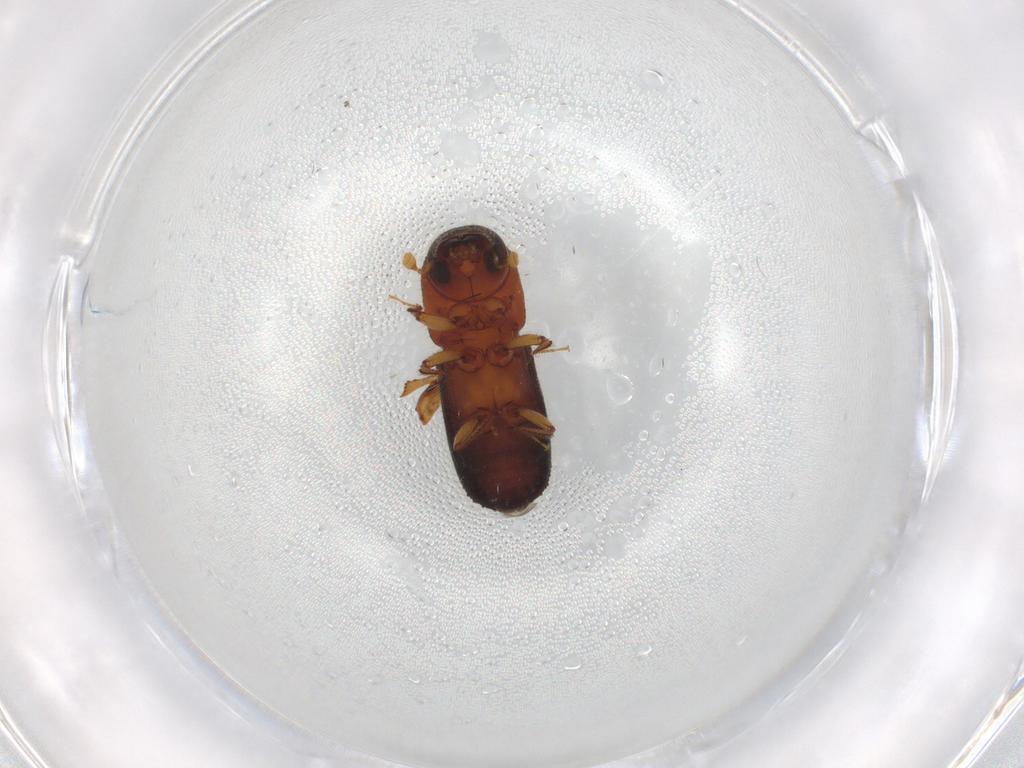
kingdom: Animalia
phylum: Arthropoda
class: Insecta
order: Coleoptera
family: Curculionidae
